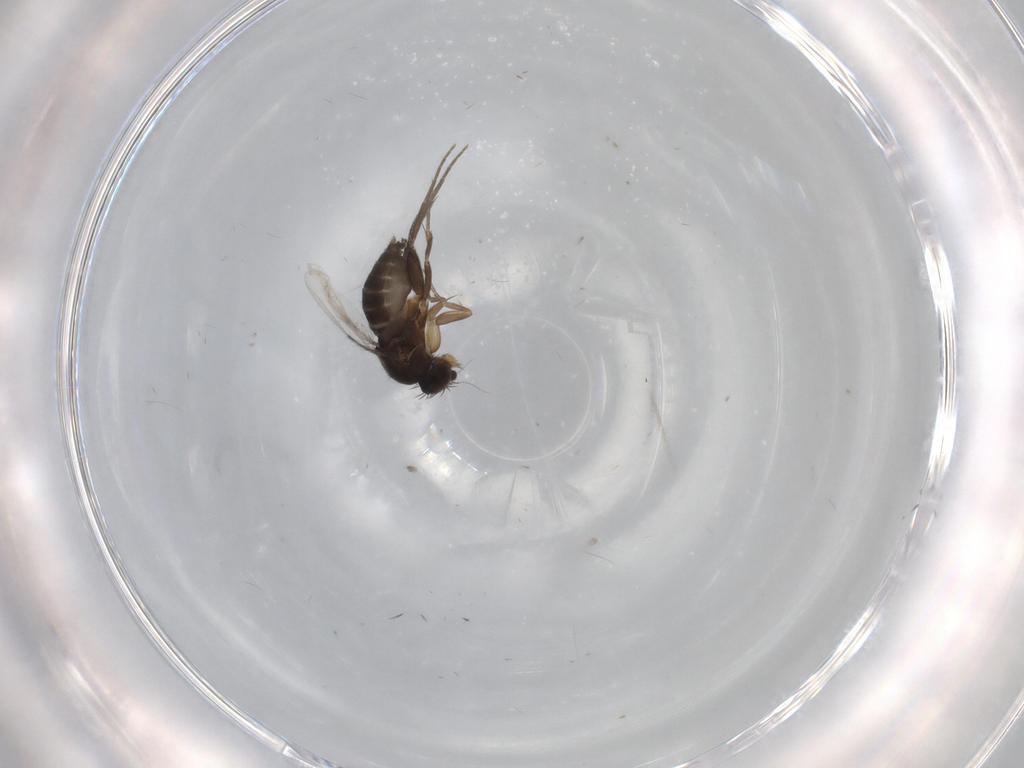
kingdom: Animalia
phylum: Arthropoda
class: Insecta
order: Diptera
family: Phoridae
